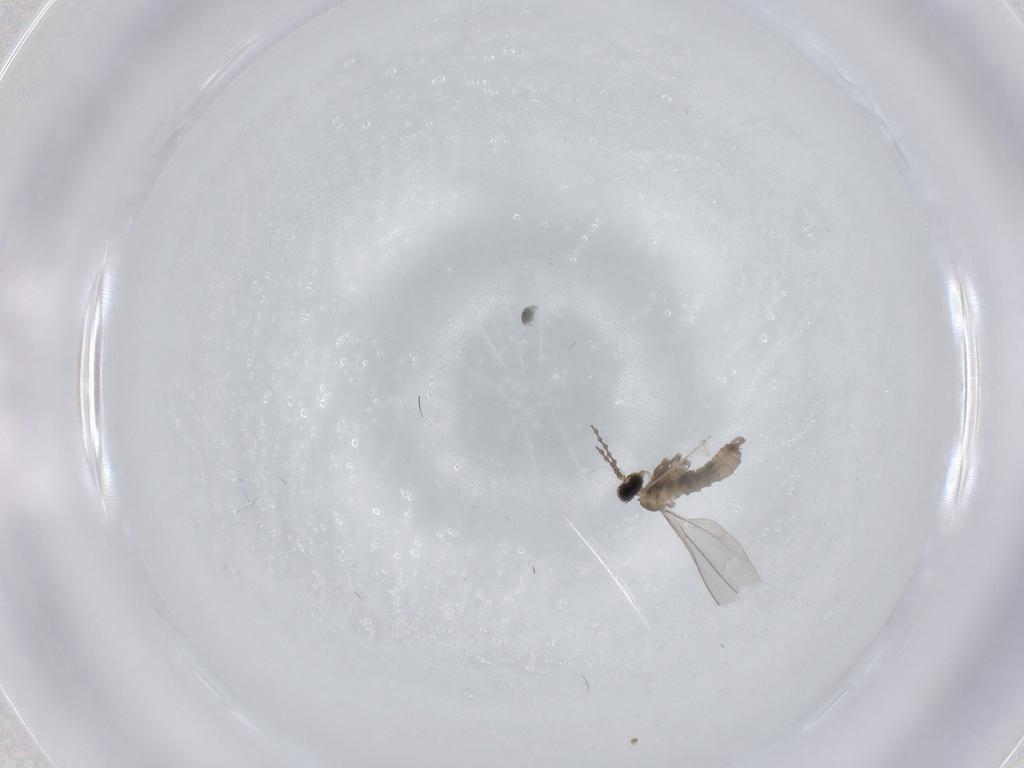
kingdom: Animalia
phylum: Arthropoda
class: Insecta
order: Diptera
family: Cecidomyiidae
